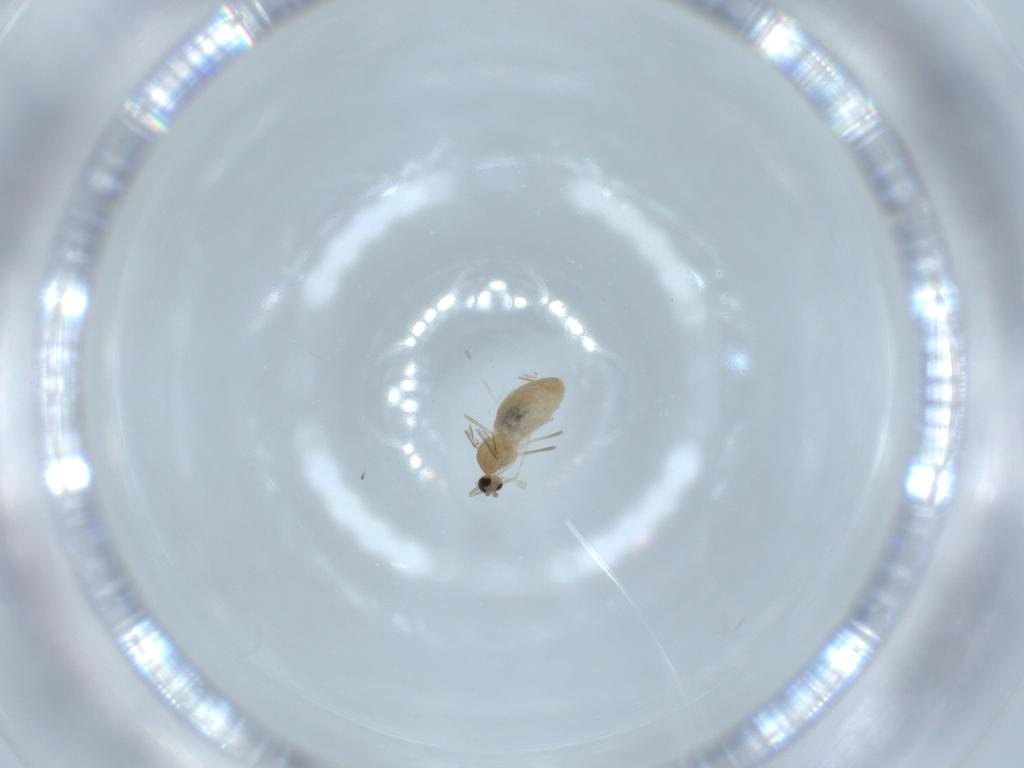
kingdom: Animalia
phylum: Arthropoda
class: Insecta
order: Diptera
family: Cecidomyiidae
